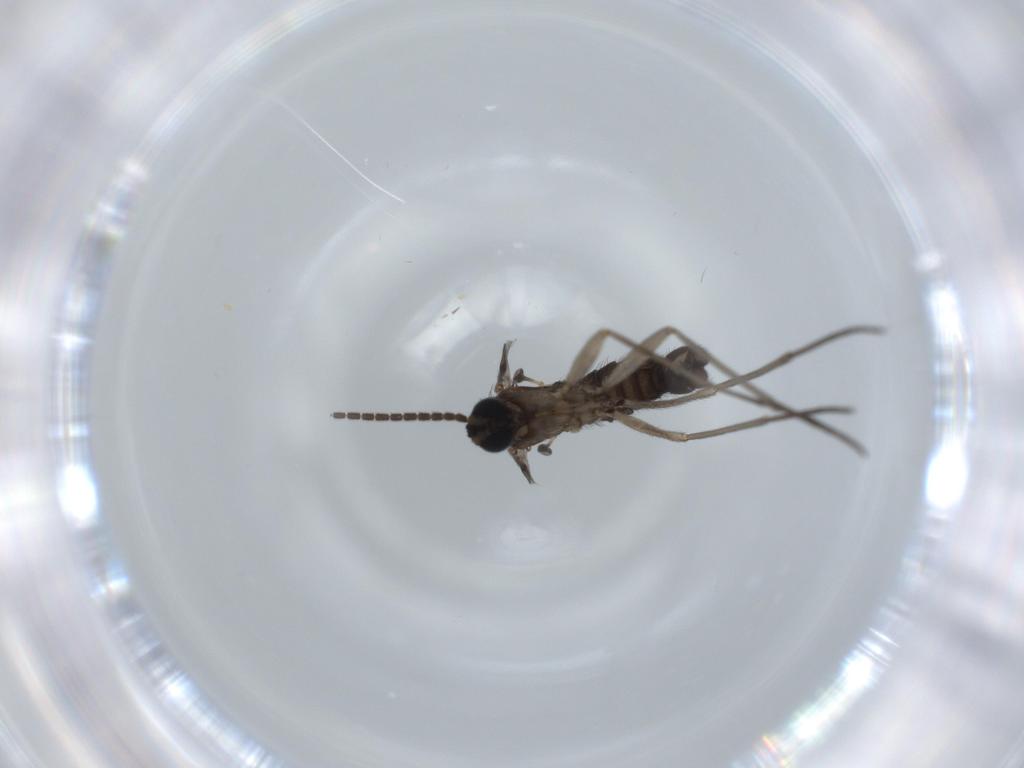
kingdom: Animalia
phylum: Arthropoda
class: Insecta
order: Diptera
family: Sciaridae
